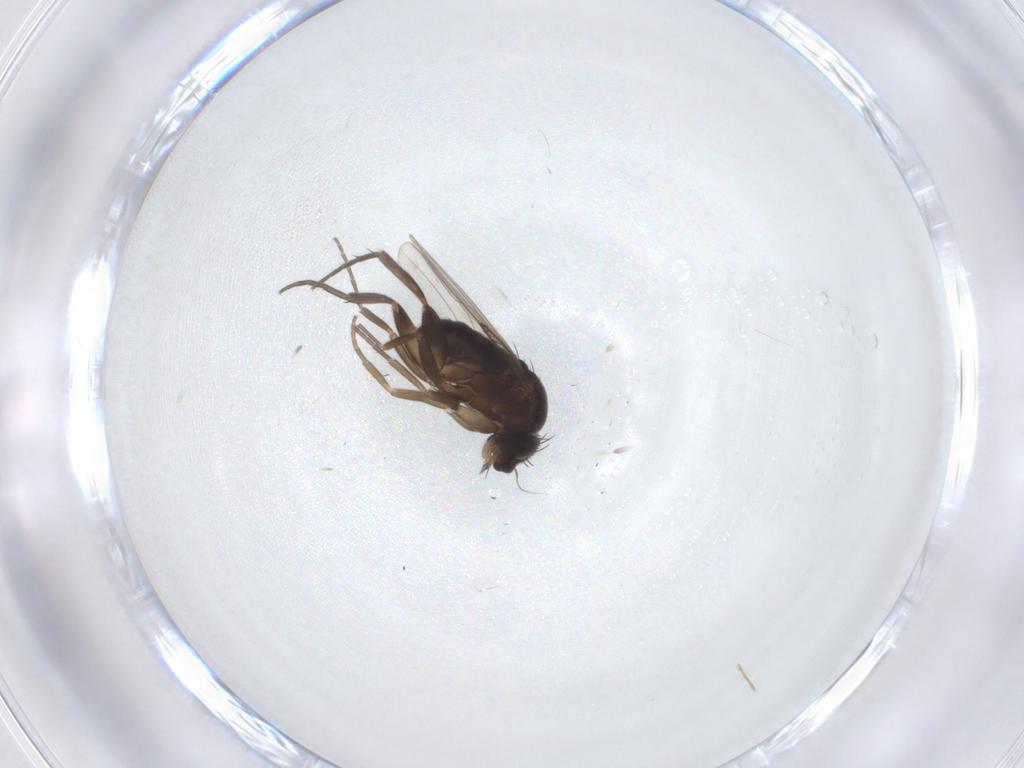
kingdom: Animalia
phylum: Arthropoda
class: Insecta
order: Diptera
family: Phoridae
